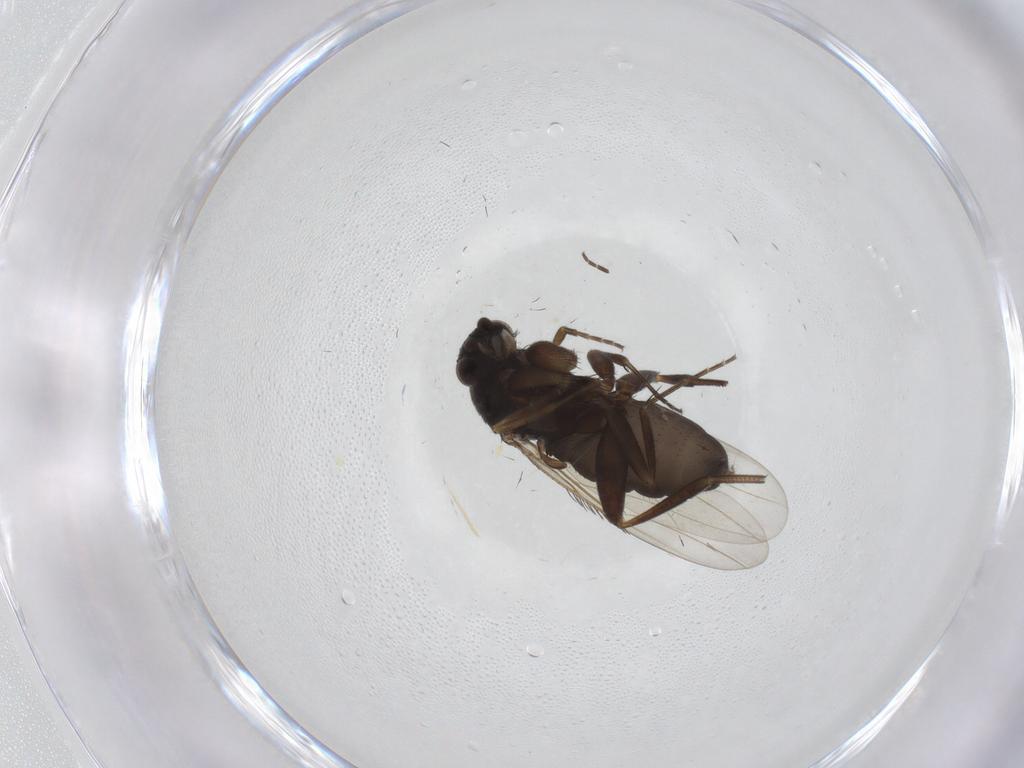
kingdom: Animalia
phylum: Arthropoda
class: Insecta
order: Diptera
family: Phoridae
